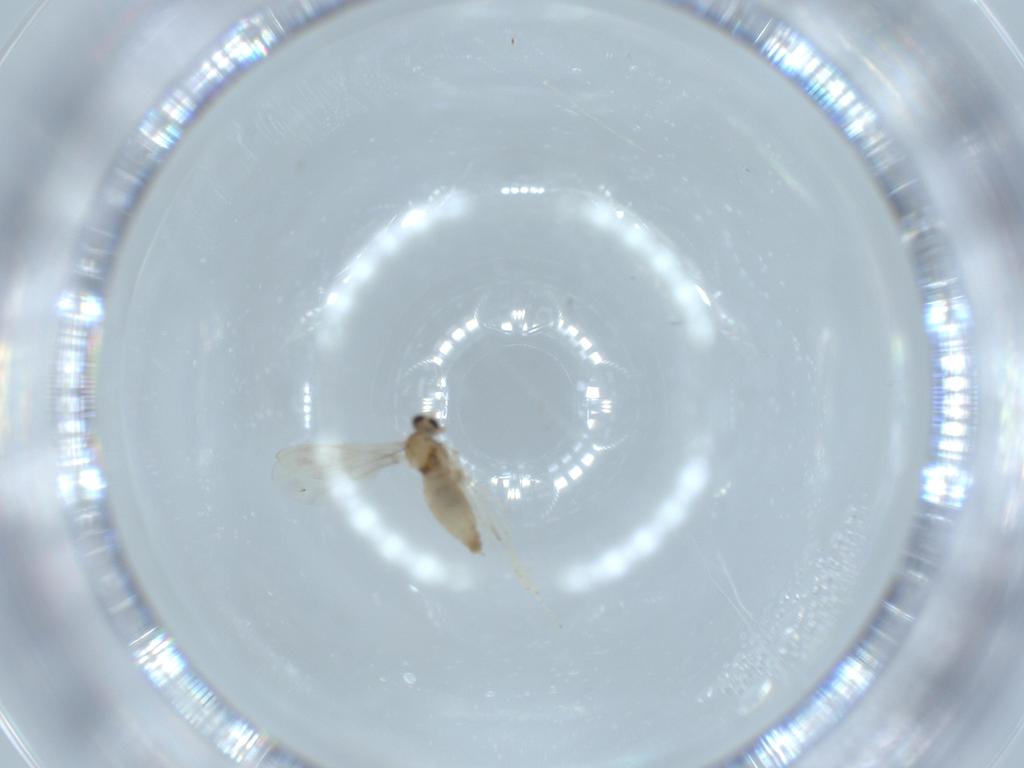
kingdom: Animalia
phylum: Arthropoda
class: Insecta
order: Diptera
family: Cecidomyiidae
